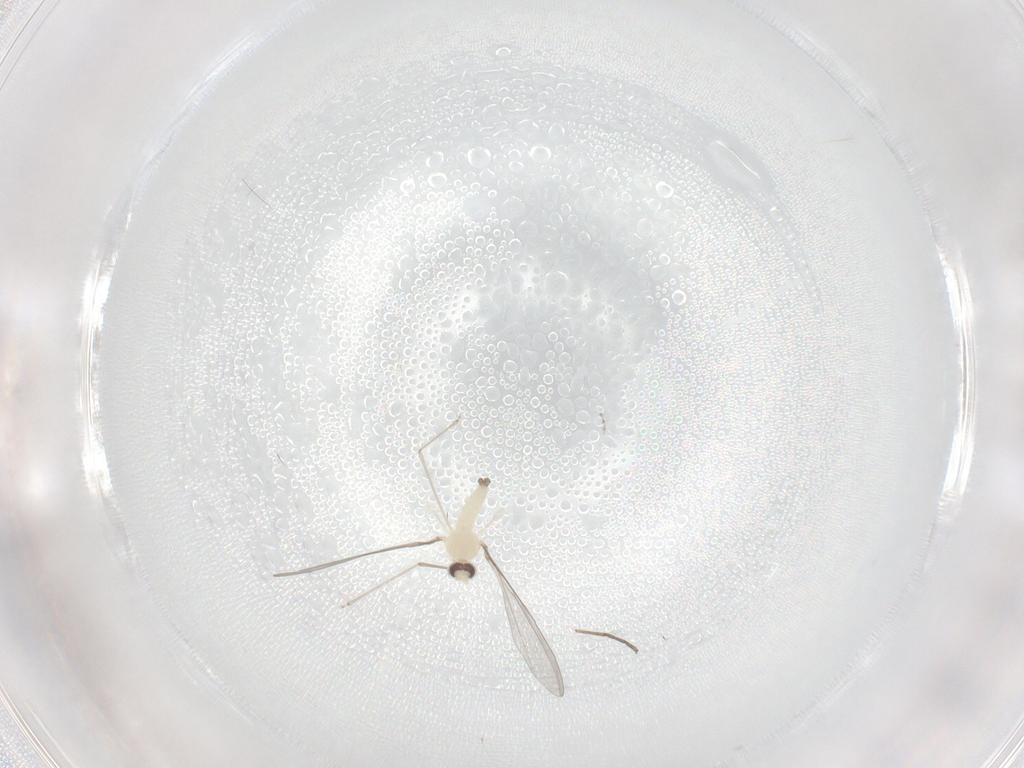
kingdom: Animalia
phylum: Arthropoda
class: Insecta
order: Diptera
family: Cecidomyiidae
